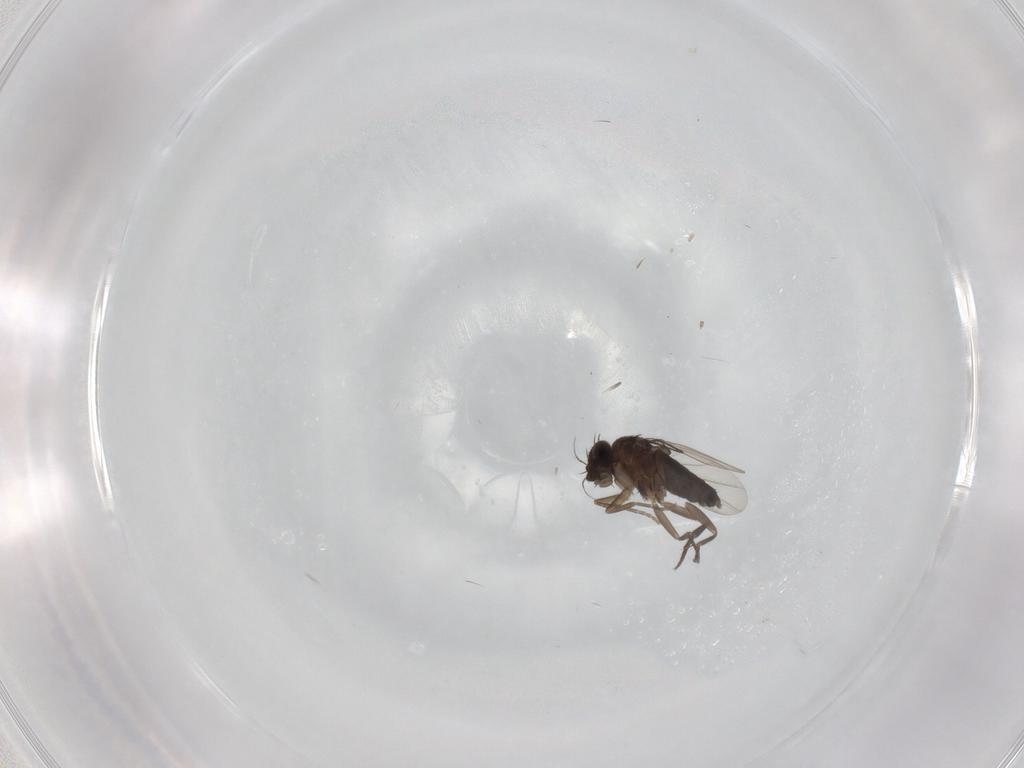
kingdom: Animalia
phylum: Arthropoda
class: Insecta
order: Diptera
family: Phoridae
